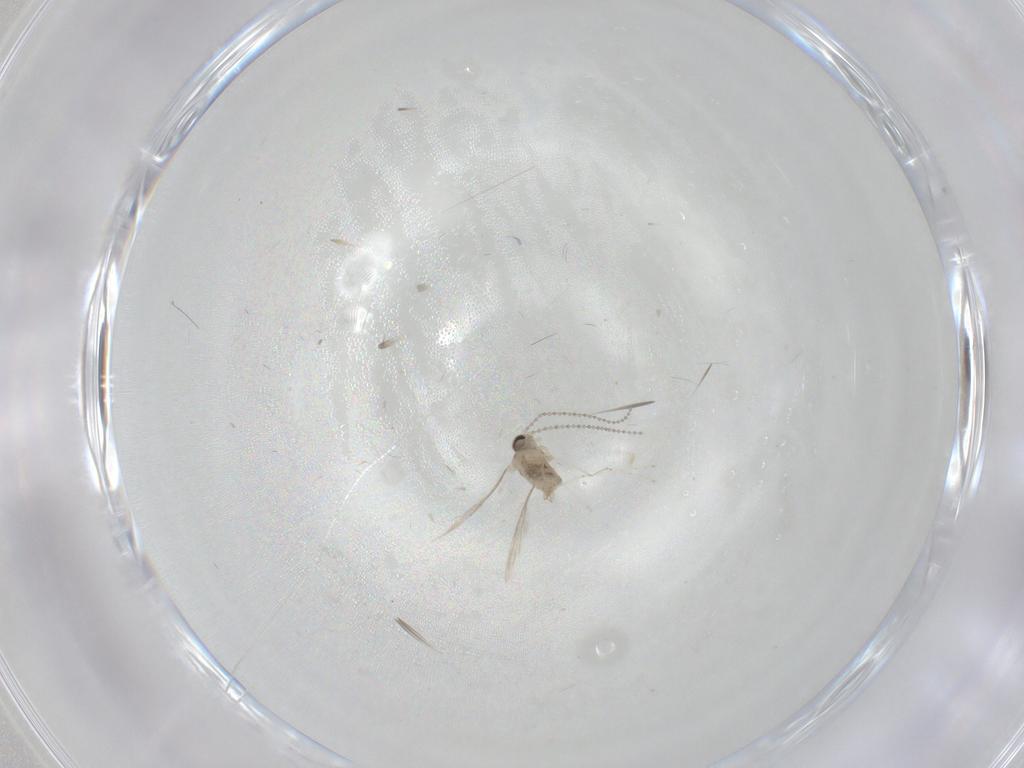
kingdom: Animalia
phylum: Arthropoda
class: Insecta
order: Diptera
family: Cecidomyiidae
